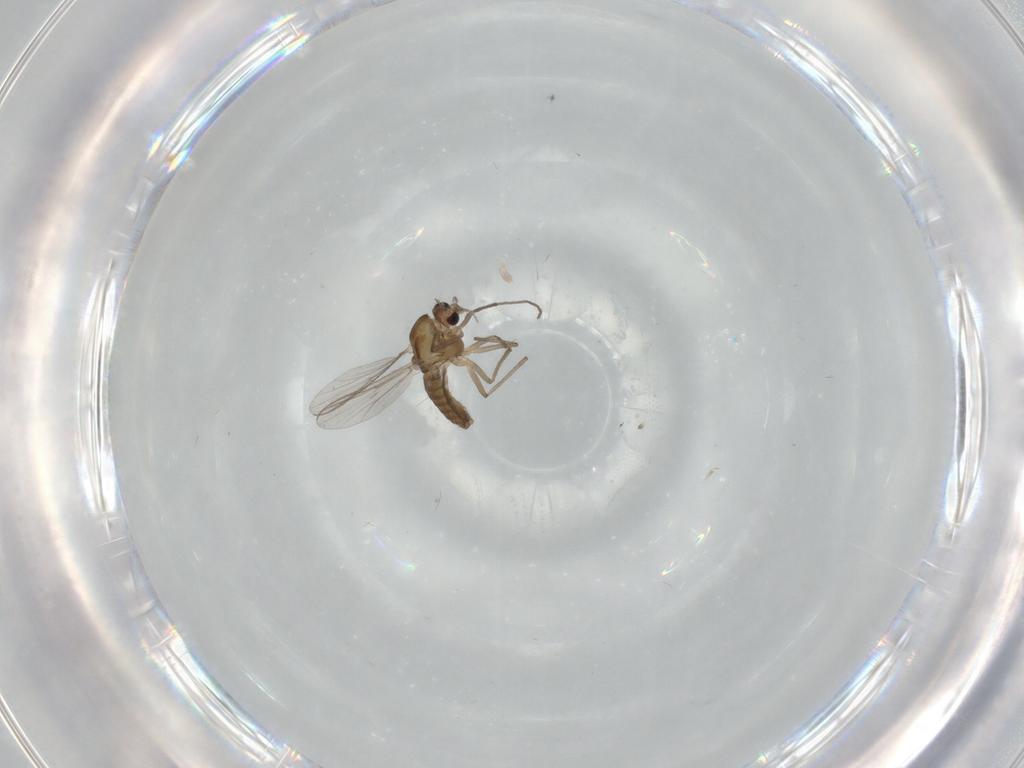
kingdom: Animalia
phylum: Arthropoda
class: Insecta
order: Diptera
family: Chironomidae
